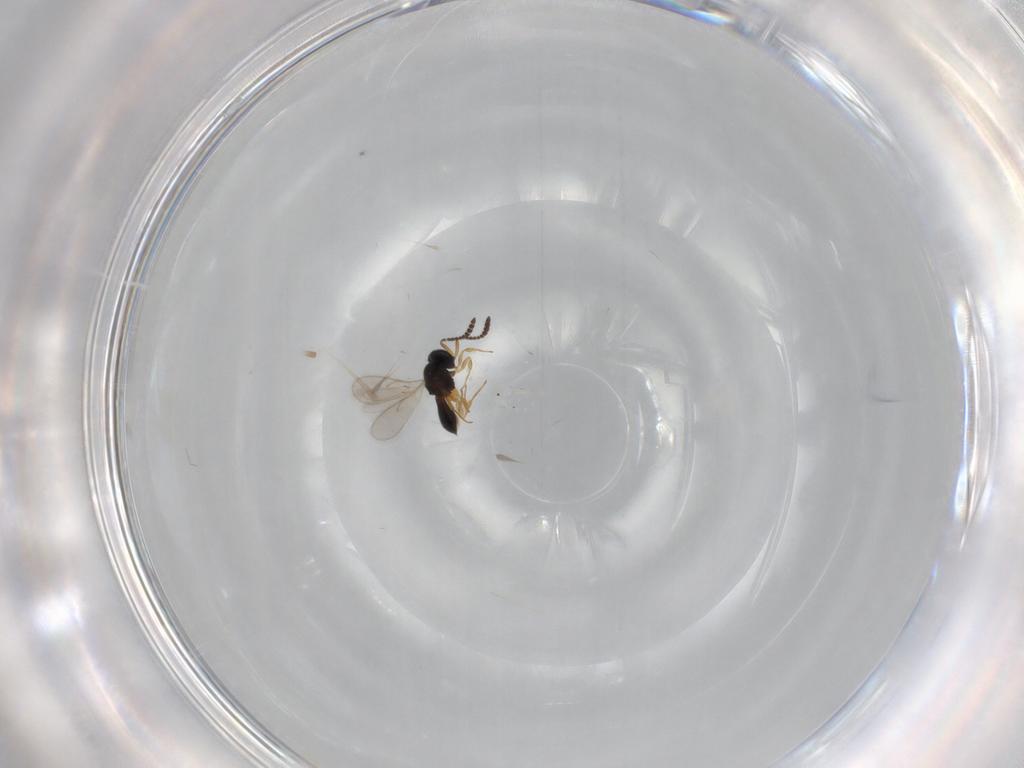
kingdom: Animalia
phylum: Arthropoda
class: Insecta
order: Hymenoptera
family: Scelionidae
